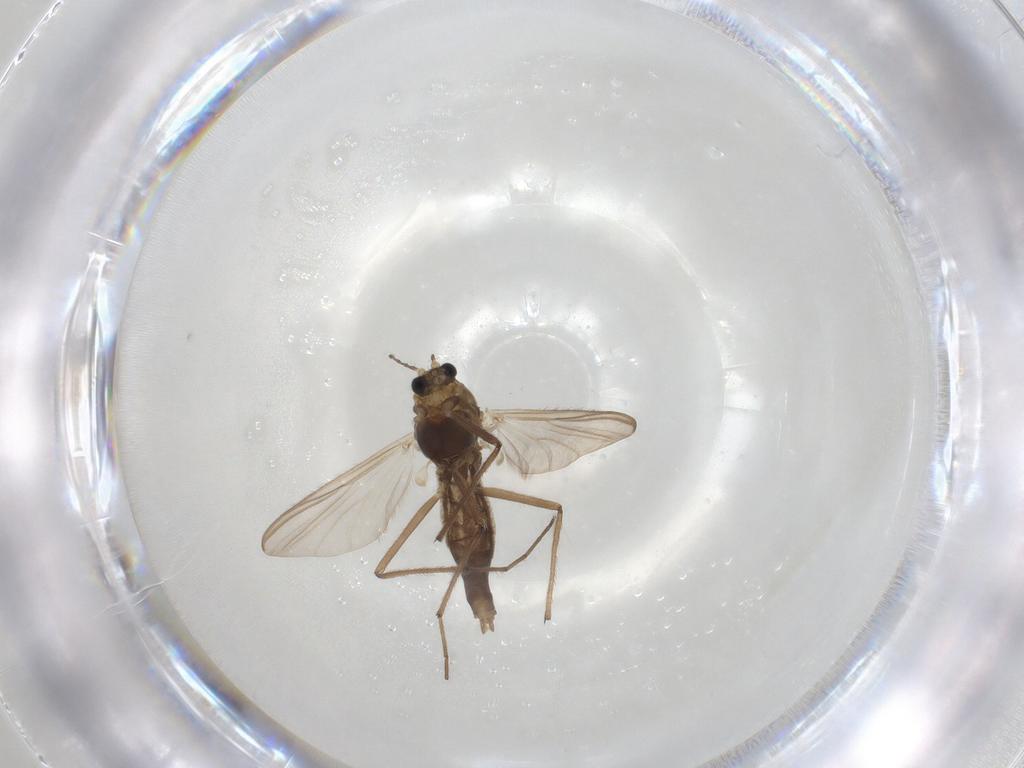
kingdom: Animalia
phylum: Arthropoda
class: Insecta
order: Diptera
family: Chironomidae
